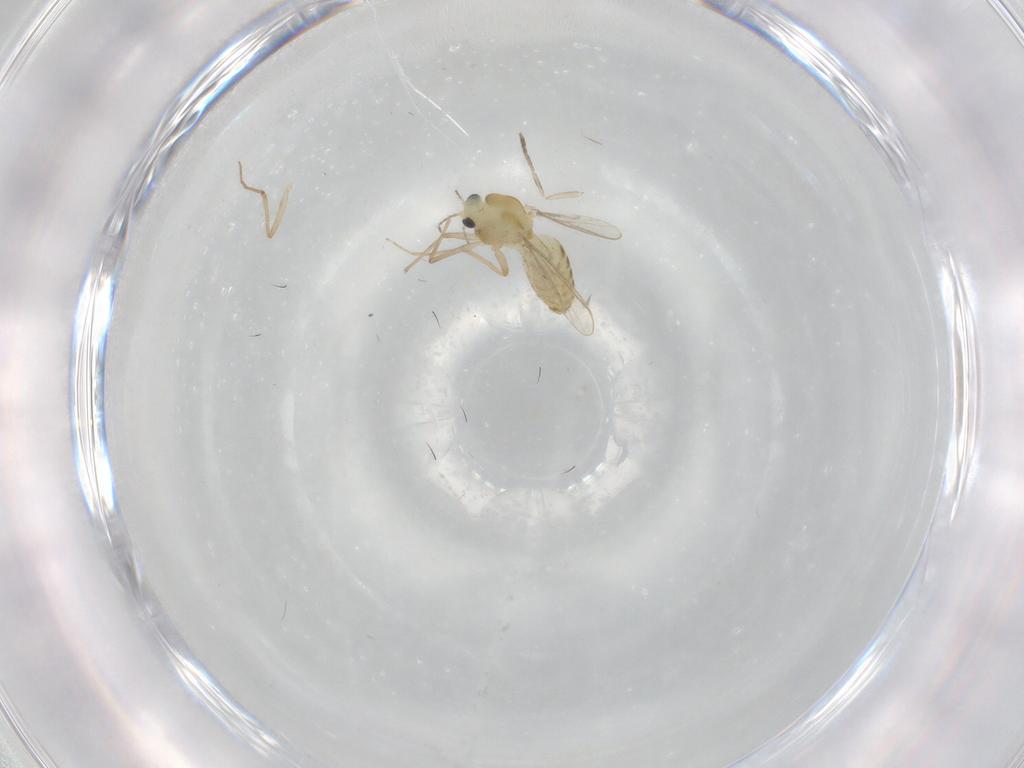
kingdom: Animalia
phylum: Arthropoda
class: Insecta
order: Diptera
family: Chironomidae
